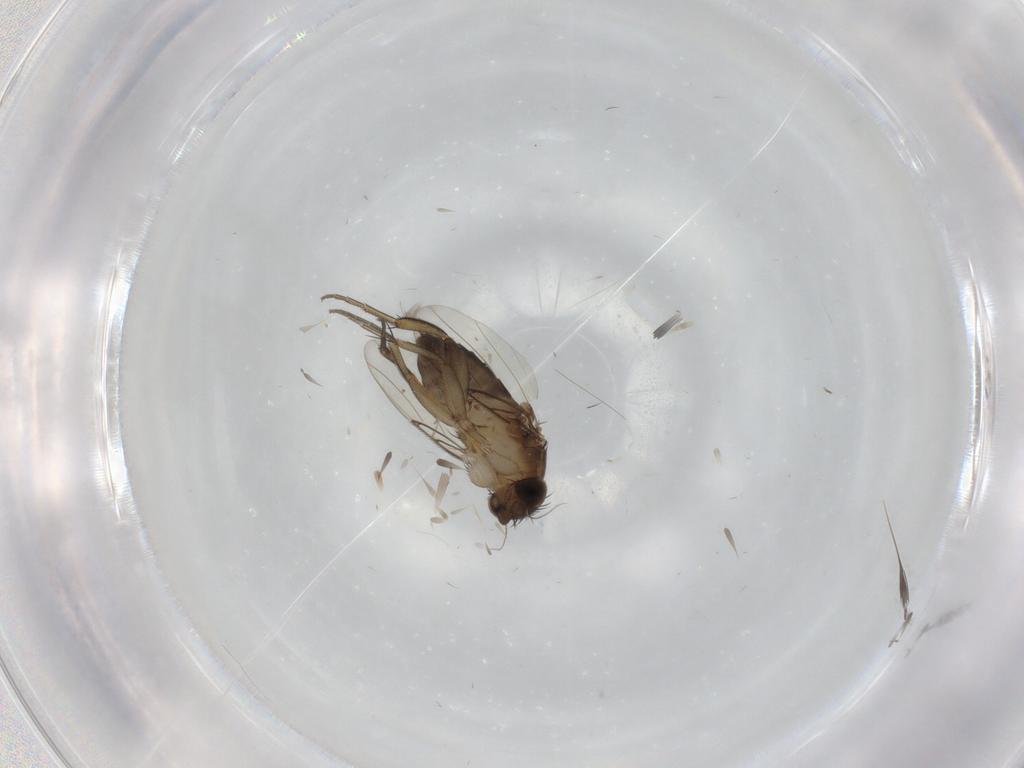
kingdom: Animalia
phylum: Arthropoda
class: Insecta
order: Diptera
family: Phoridae
